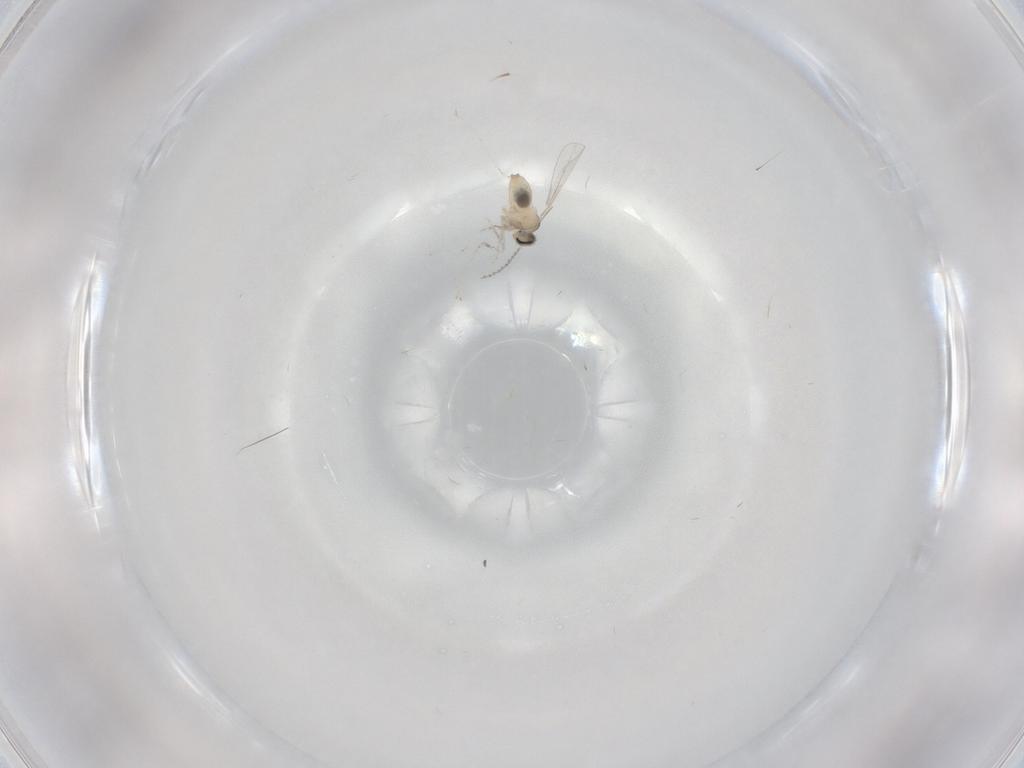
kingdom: Animalia
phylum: Arthropoda
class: Insecta
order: Diptera
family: Cecidomyiidae
